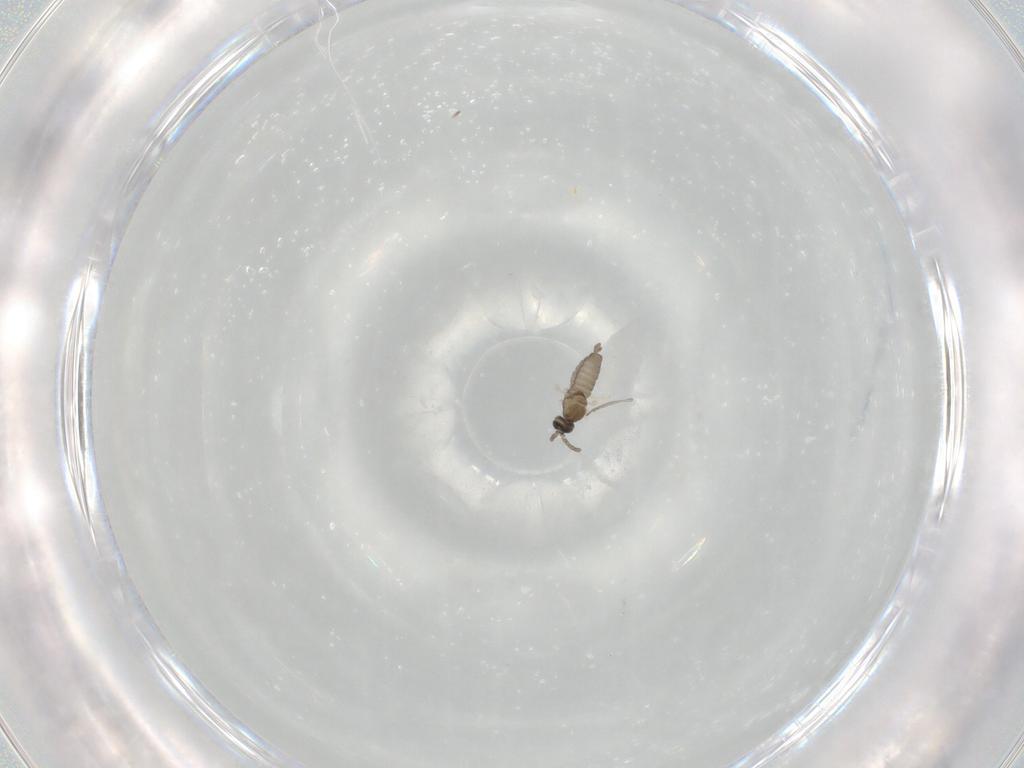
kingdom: Animalia
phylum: Arthropoda
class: Insecta
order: Diptera
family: Cecidomyiidae
